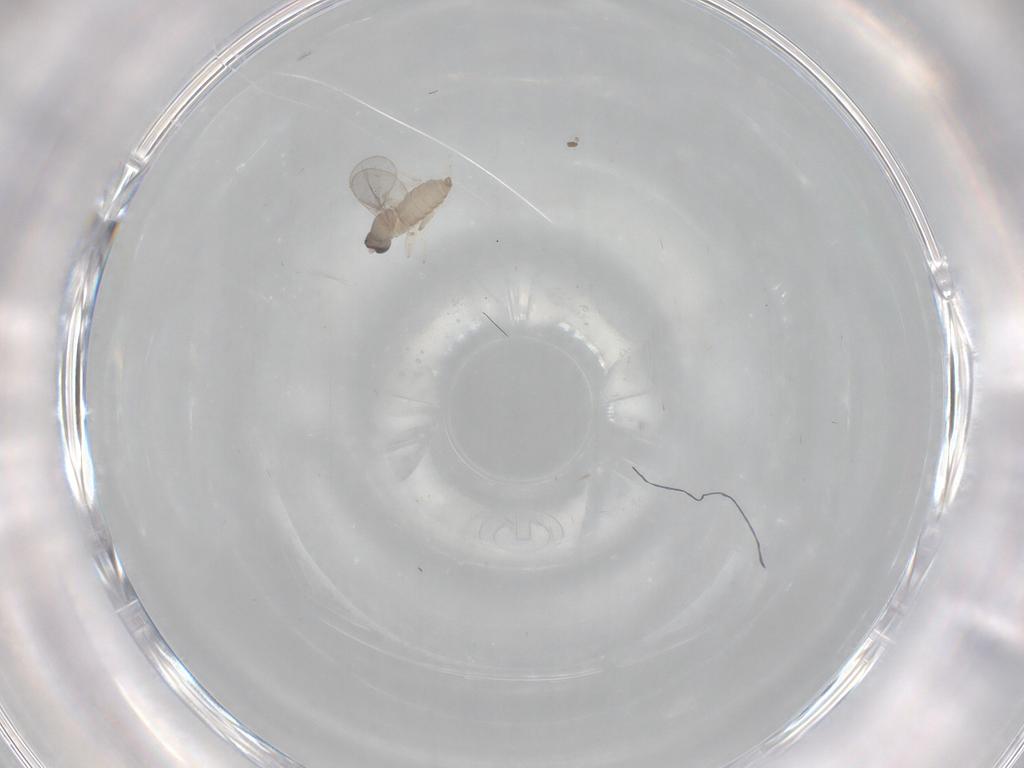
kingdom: Animalia
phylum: Arthropoda
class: Insecta
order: Diptera
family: Cecidomyiidae
